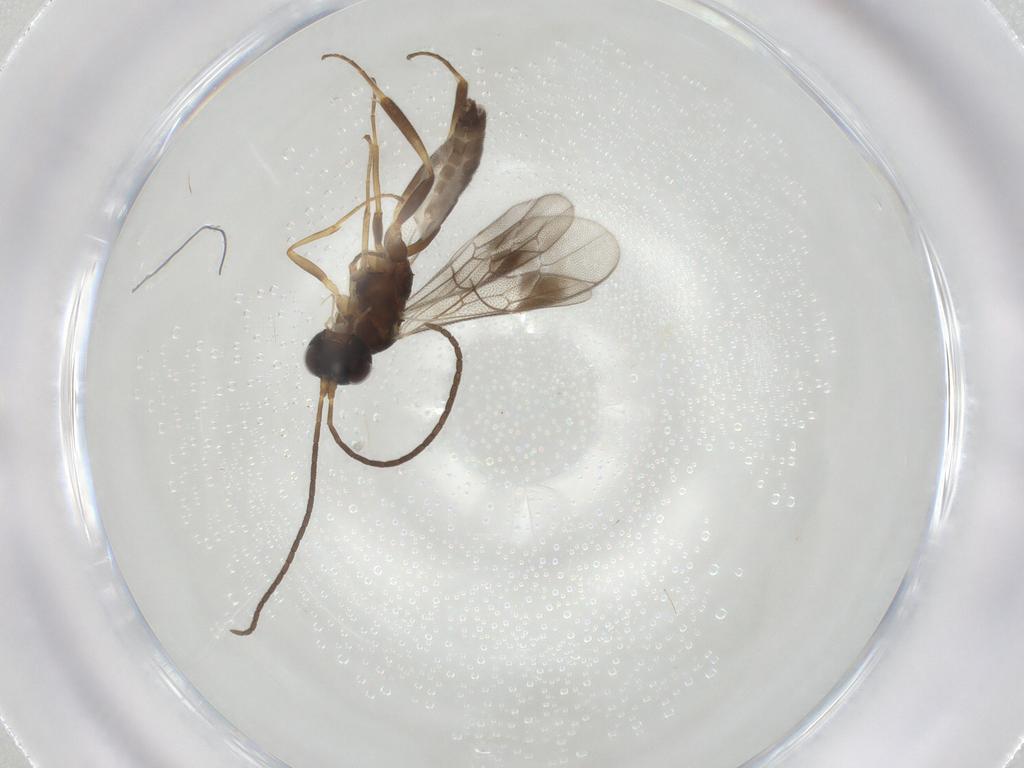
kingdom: Animalia
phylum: Arthropoda
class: Insecta
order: Hymenoptera
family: Ichneumonidae
